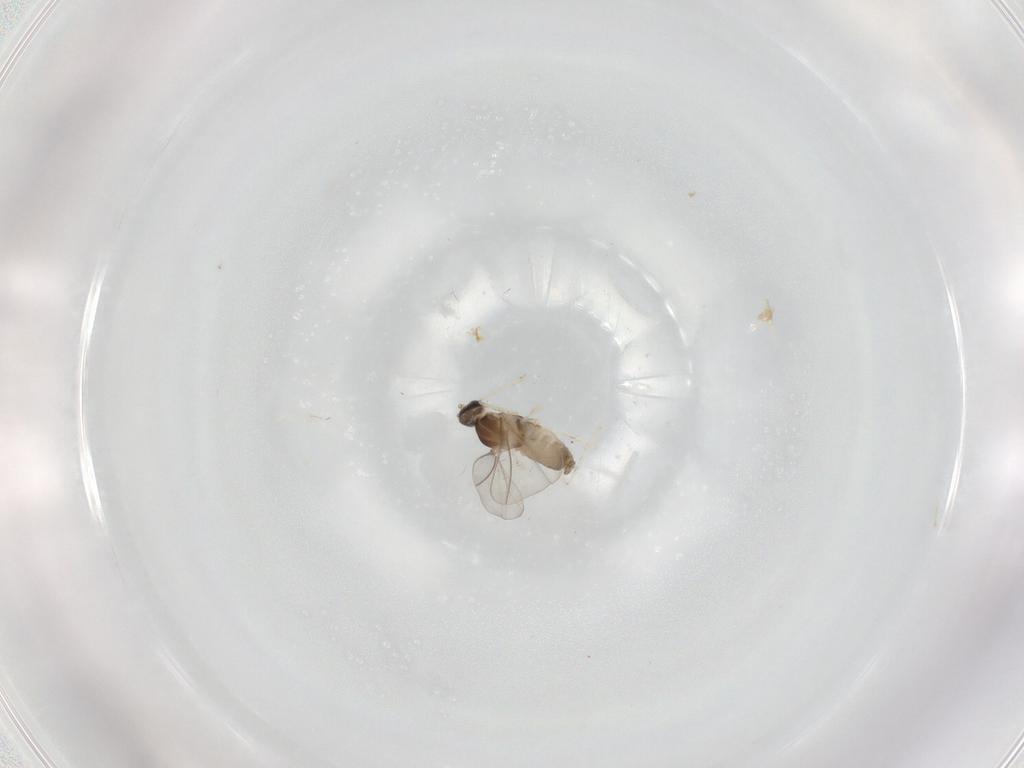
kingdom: Animalia
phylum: Arthropoda
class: Insecta
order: Diptera
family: Cecidomyiidae
